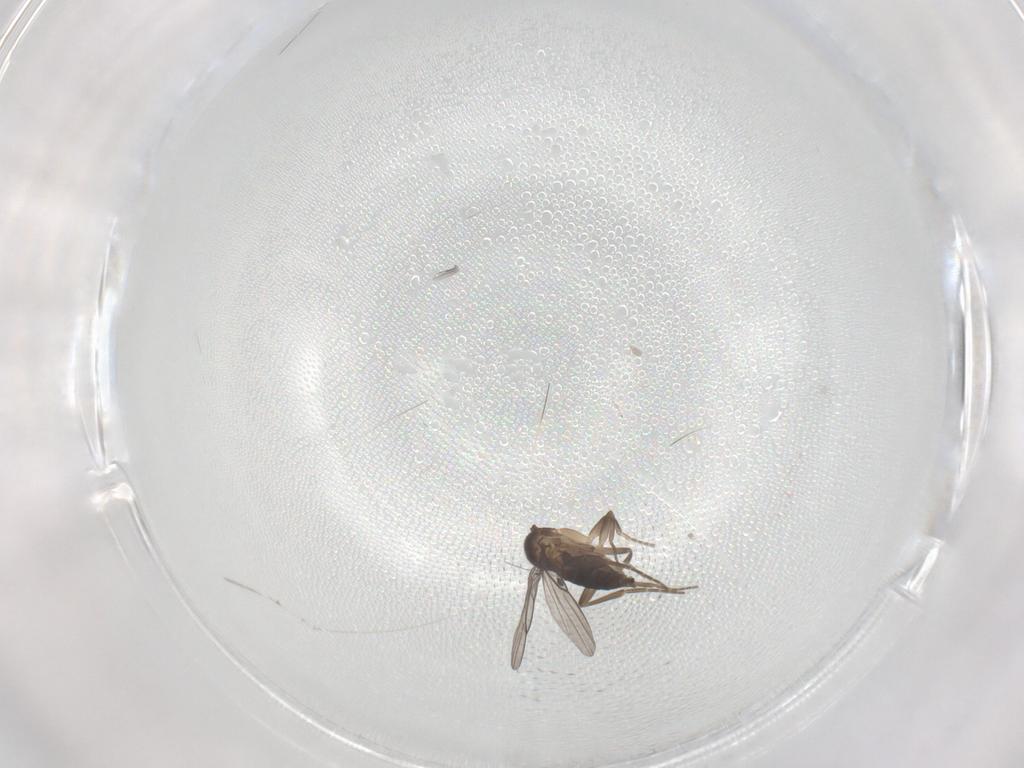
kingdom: Animalia
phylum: Arthropoda
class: Insecta
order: Diptera
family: Phoridae
